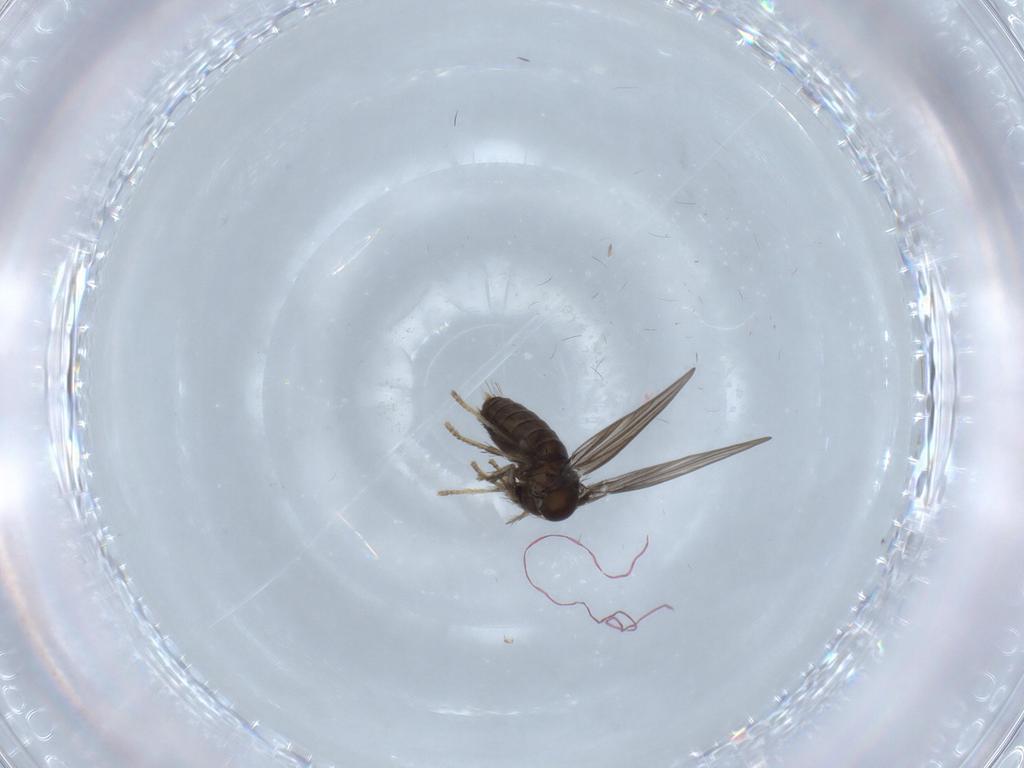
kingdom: Animalia
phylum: Arthropoda
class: Insecta
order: Diptera
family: Psychodidae
